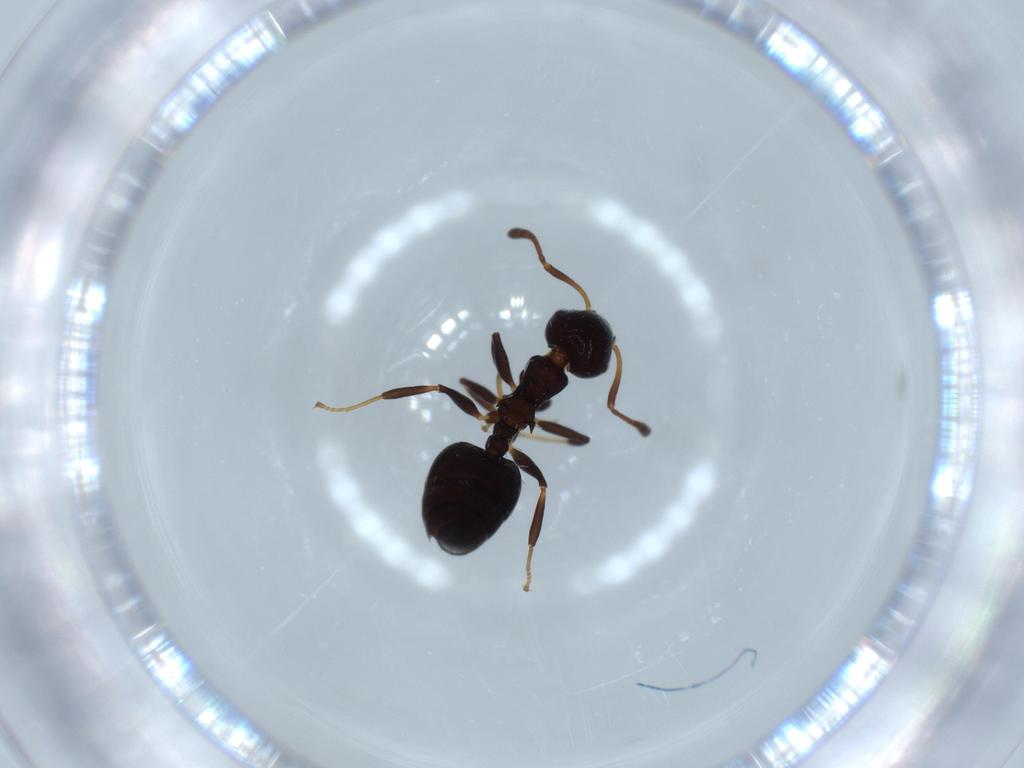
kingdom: Animalia
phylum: Arthropoda
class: Insecta
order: Hymenoptera
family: Formicidae
